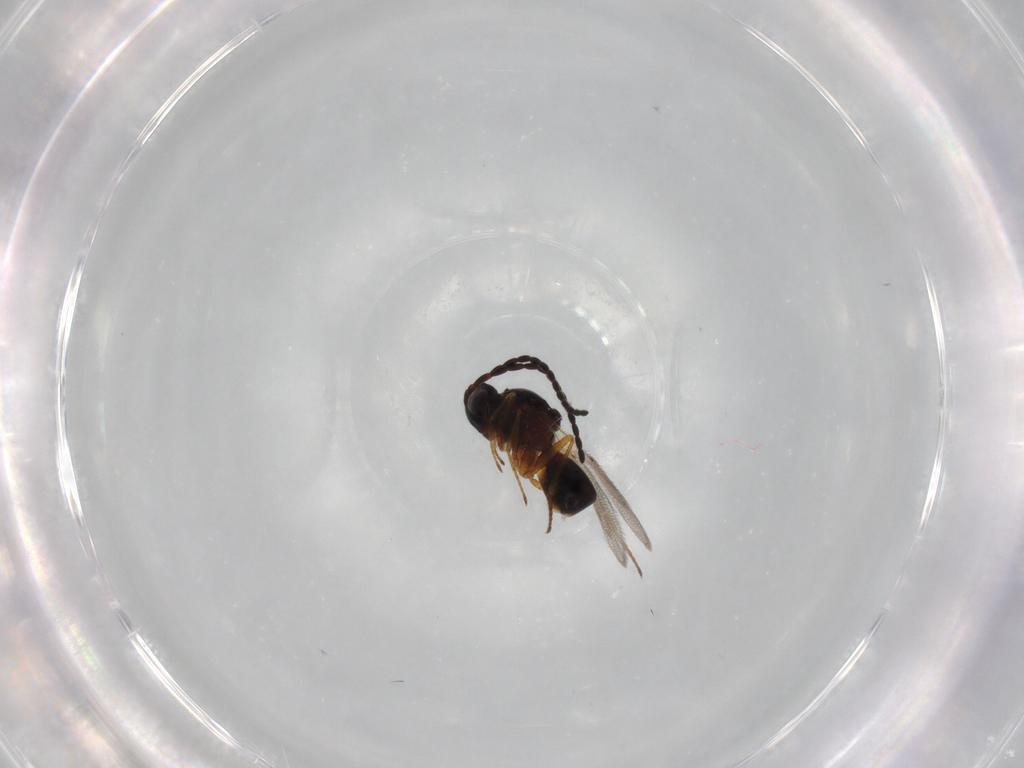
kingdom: Animalia
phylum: Arthropoda
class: Insecta
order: Hymenoptera
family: Figitidae
